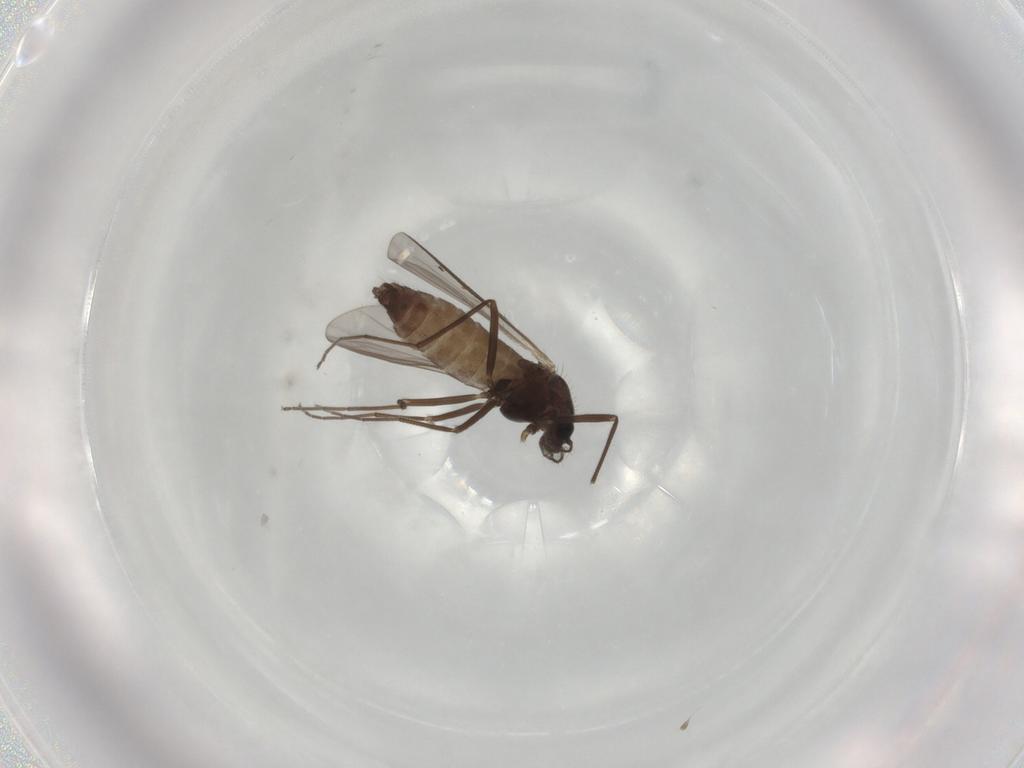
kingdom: Animalia
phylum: Arthropoda
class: Insecta
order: Diptera
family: Chironomidae
